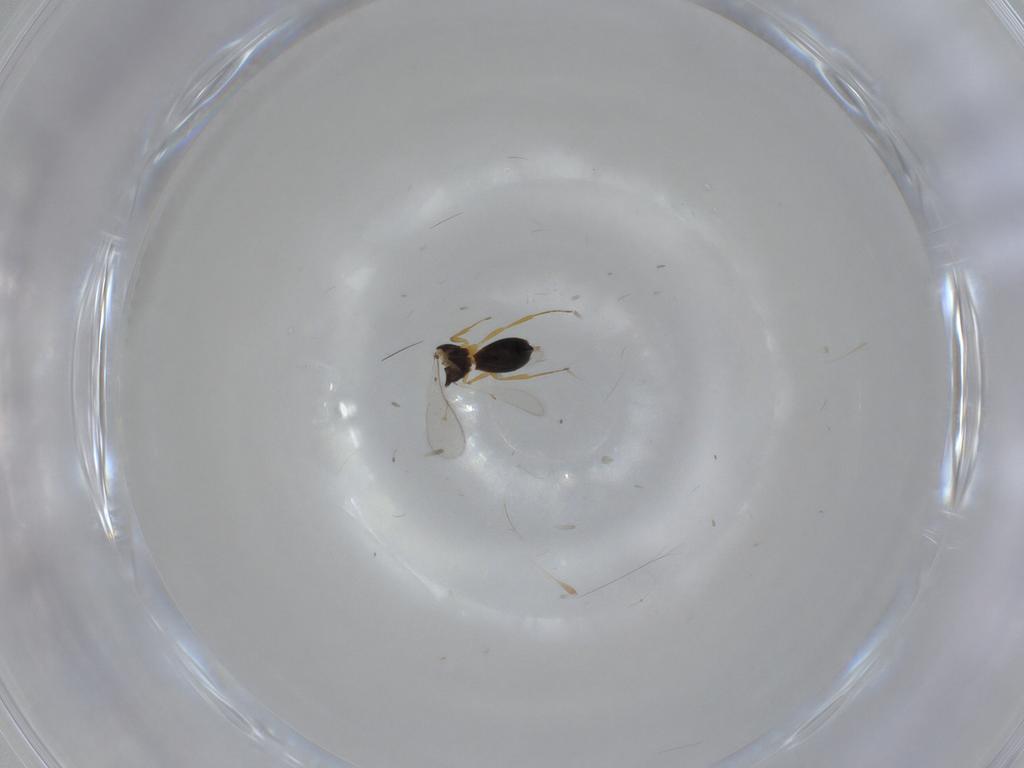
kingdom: Animalia
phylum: Arthropoda
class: Insecta
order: Hymenoptera
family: Scelionidae
